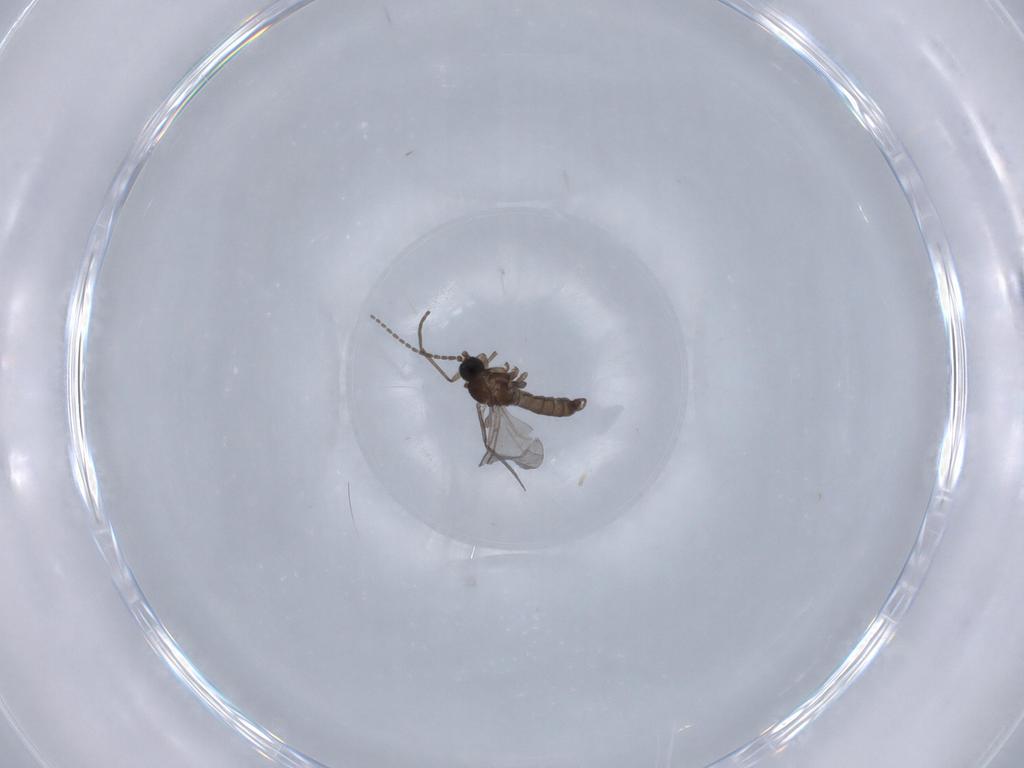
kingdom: Animalia
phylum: Arthropoda
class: Insecta
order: Diptera
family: Sciaridae
